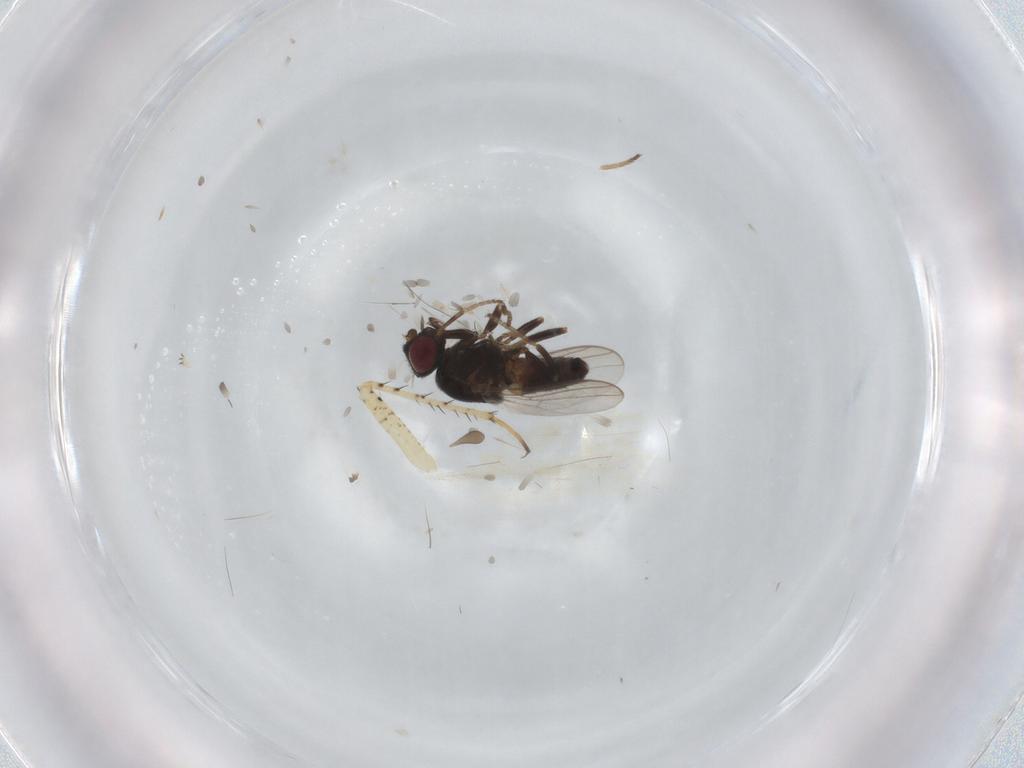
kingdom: Animalia
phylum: Arthropoda
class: Insecta
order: Diptera
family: Chloropidae
